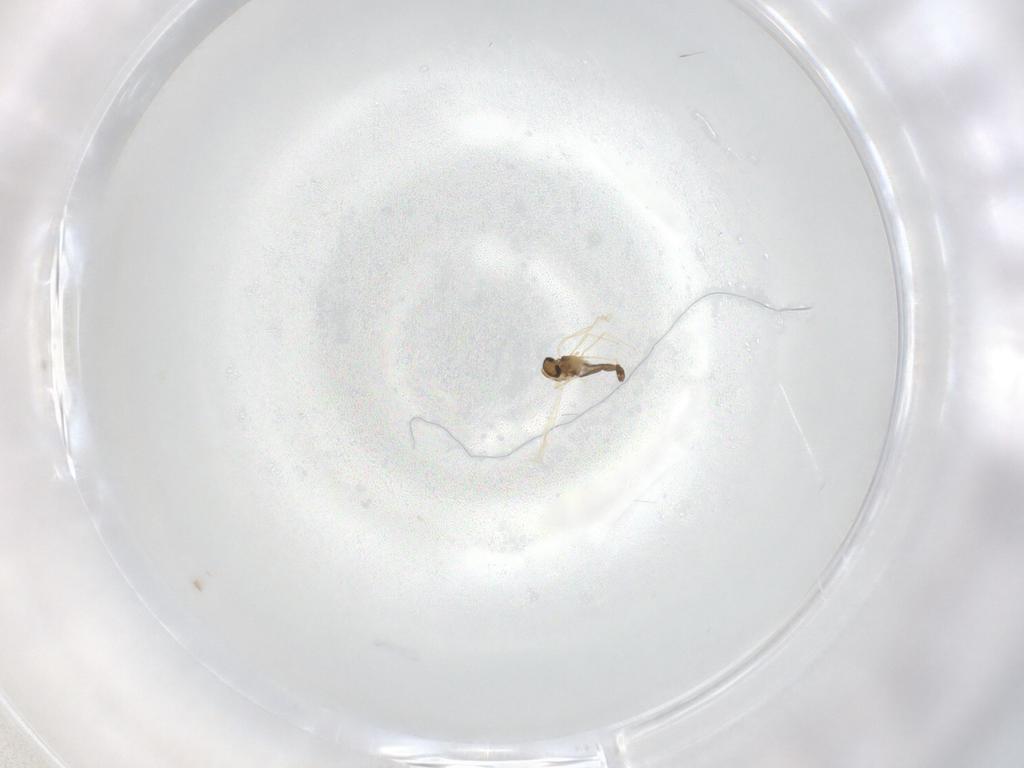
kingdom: Animalia
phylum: Arthropoda
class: Insecta
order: Diptera
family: Chironomidae
